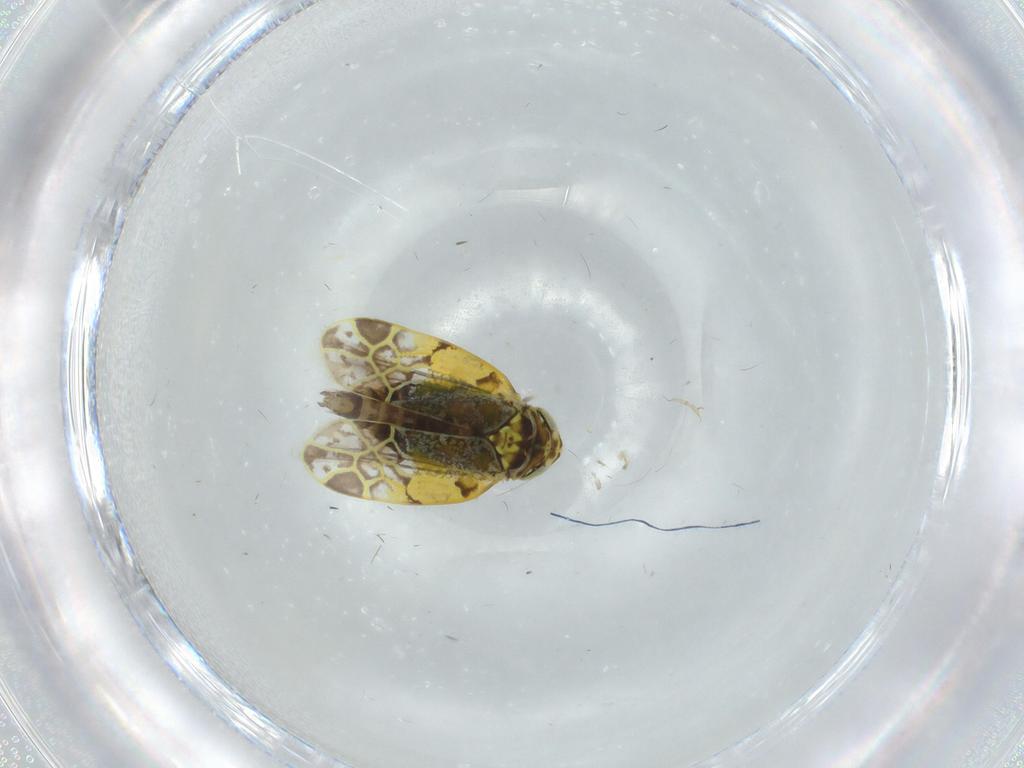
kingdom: Animalia
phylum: Arthropoda
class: Insecta
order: Hemiptera
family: Cicadellidae
